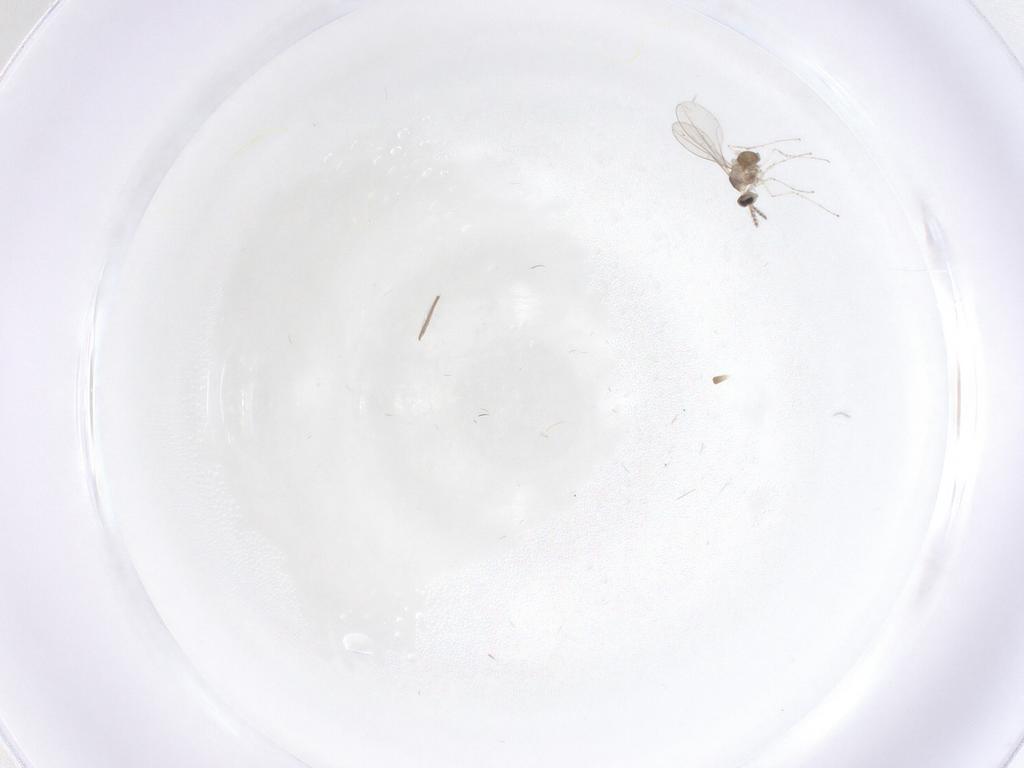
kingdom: Animalia
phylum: Arthropoda
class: Insecta
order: Diptera
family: Cecidomyiidae
